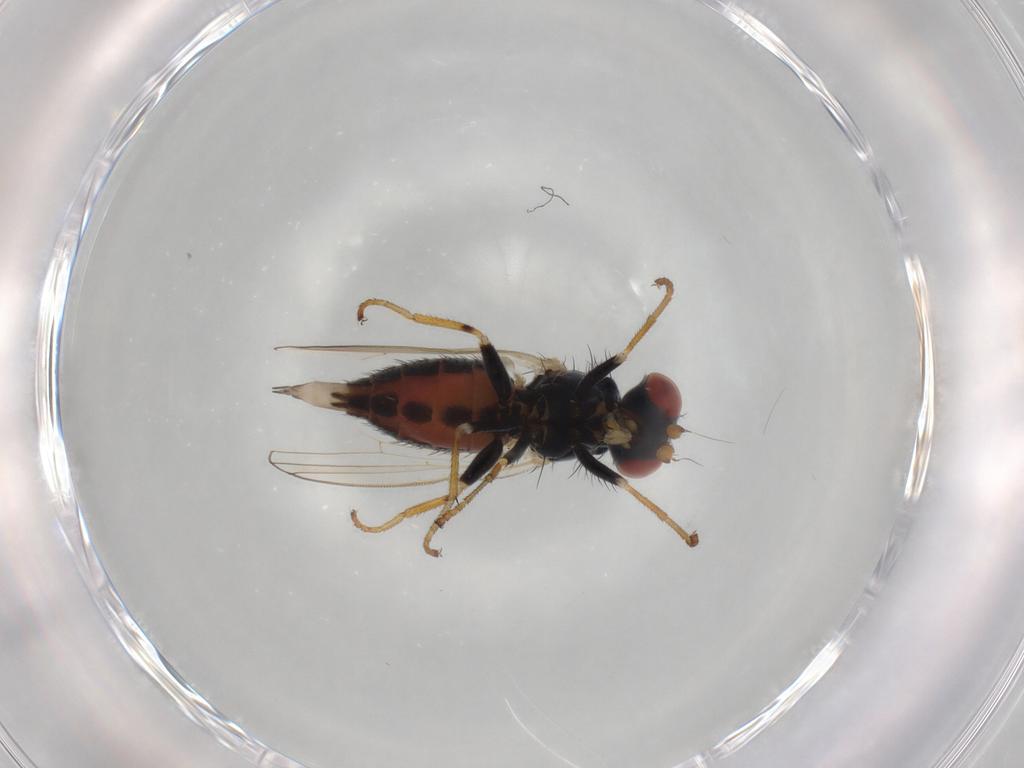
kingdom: Animalia
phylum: Arthropoda
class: Insecta
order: Diptera
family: Chamaemyiidae
